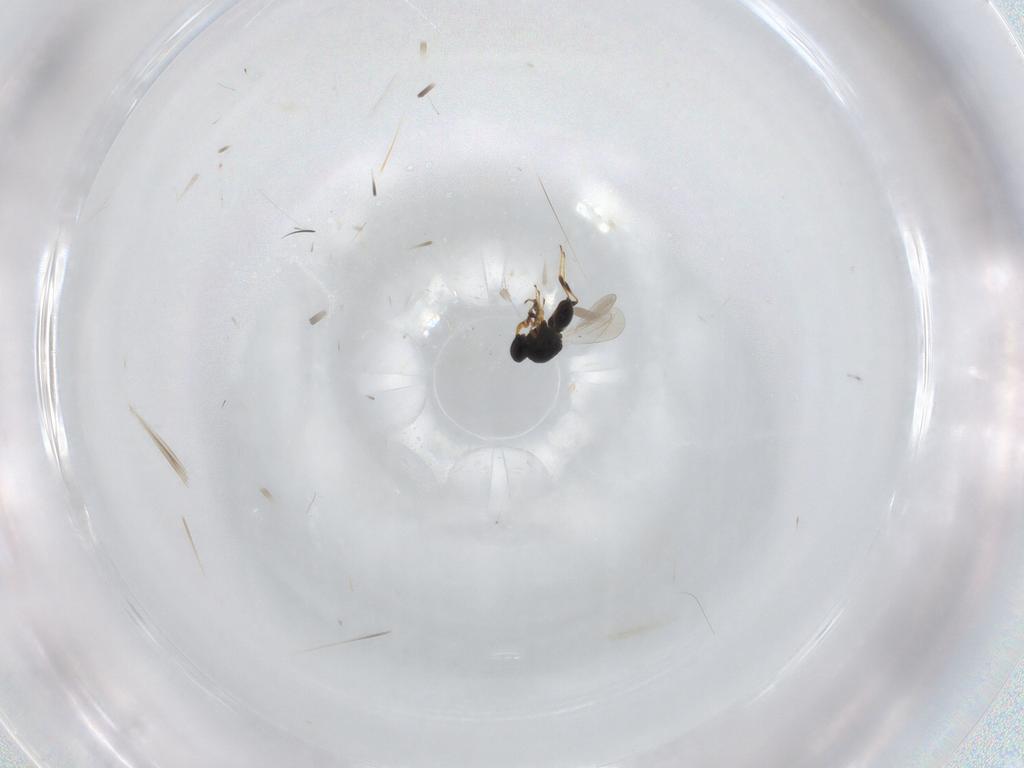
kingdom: Animalia
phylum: Arthropoda
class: Insecta
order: Hymenoptera
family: Platygastridae
